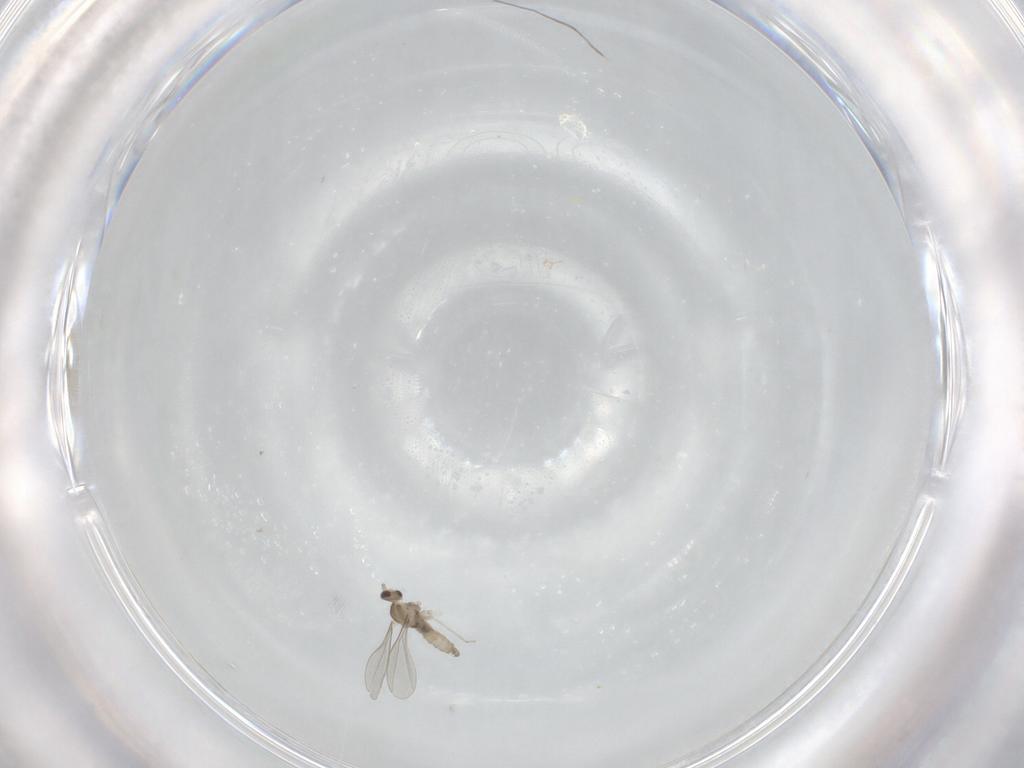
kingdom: Animalia
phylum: Arthropoda
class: Insecta
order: Diptera
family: Cecidomyiidae
